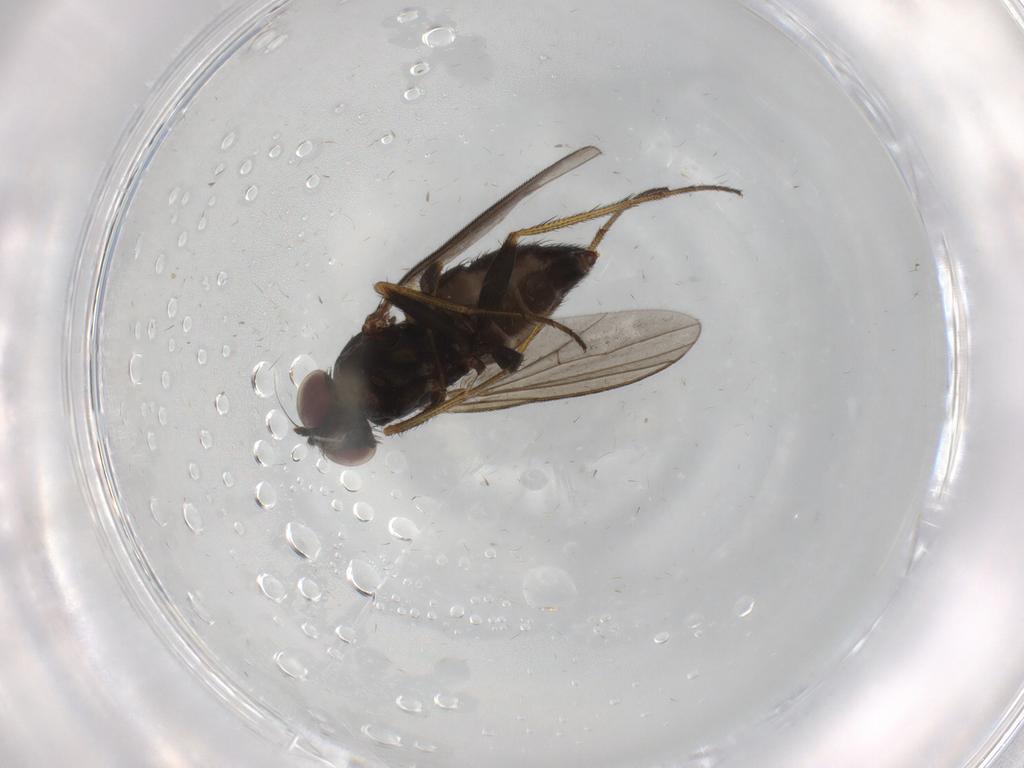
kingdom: Animalia
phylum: Arthropoda
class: Insecta
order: Diptera
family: Dolichopodidae
